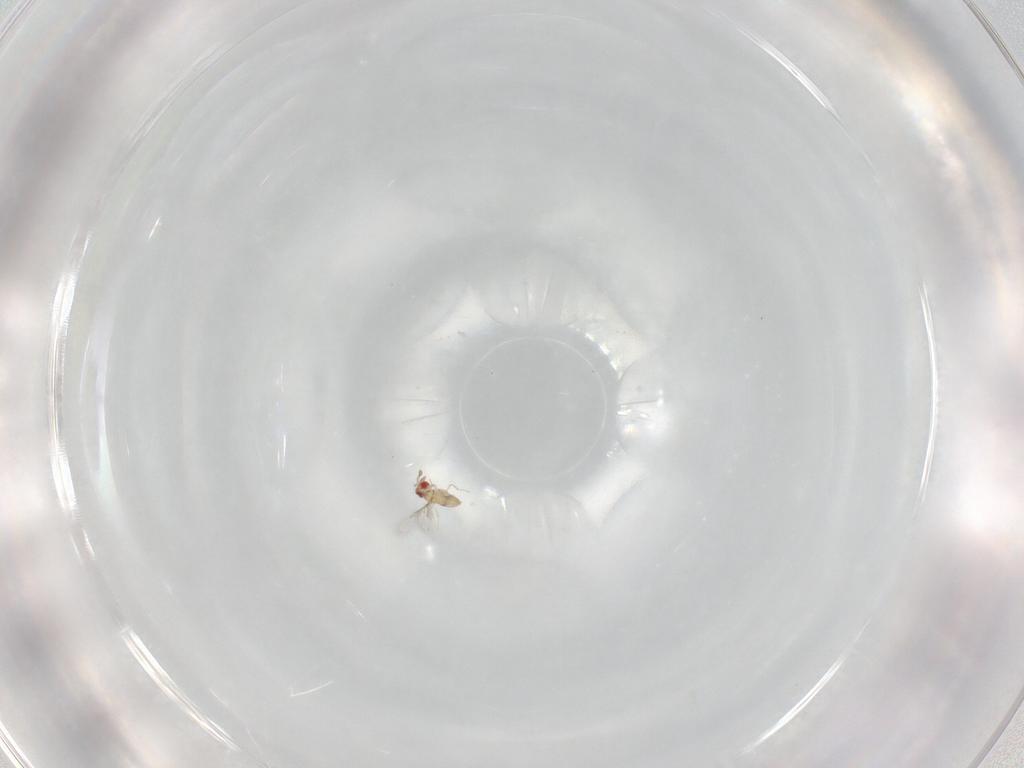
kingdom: Animalia
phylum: Arthropoda
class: Insecta
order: Hymenoptera
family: Trichogrammatidae
